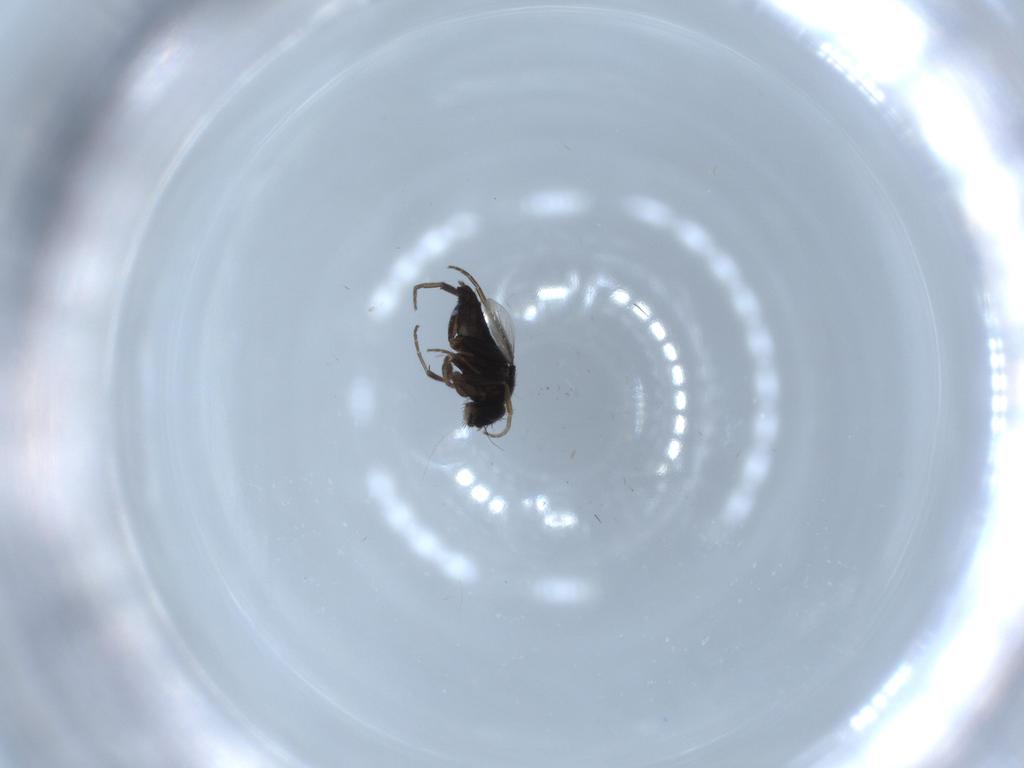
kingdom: Animalia
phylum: Arthropoda
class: Insecta
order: Diptera
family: Phoridae
